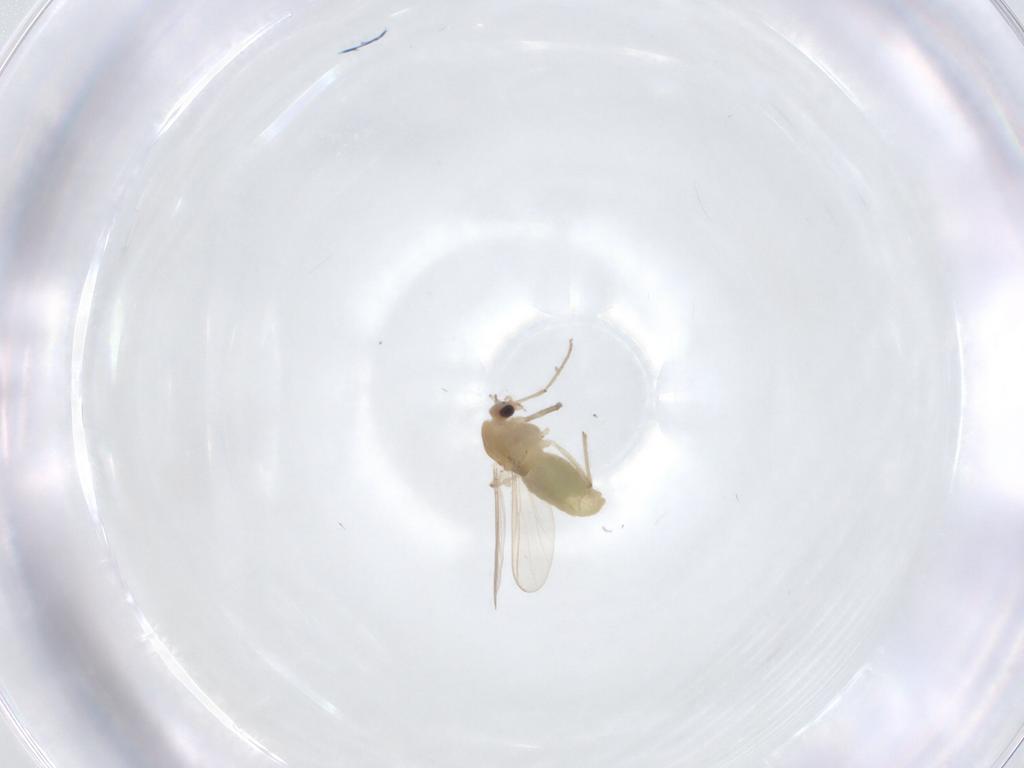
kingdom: Animalia
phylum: Arthropoda
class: Insecta
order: Diptera
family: Chironomidae
